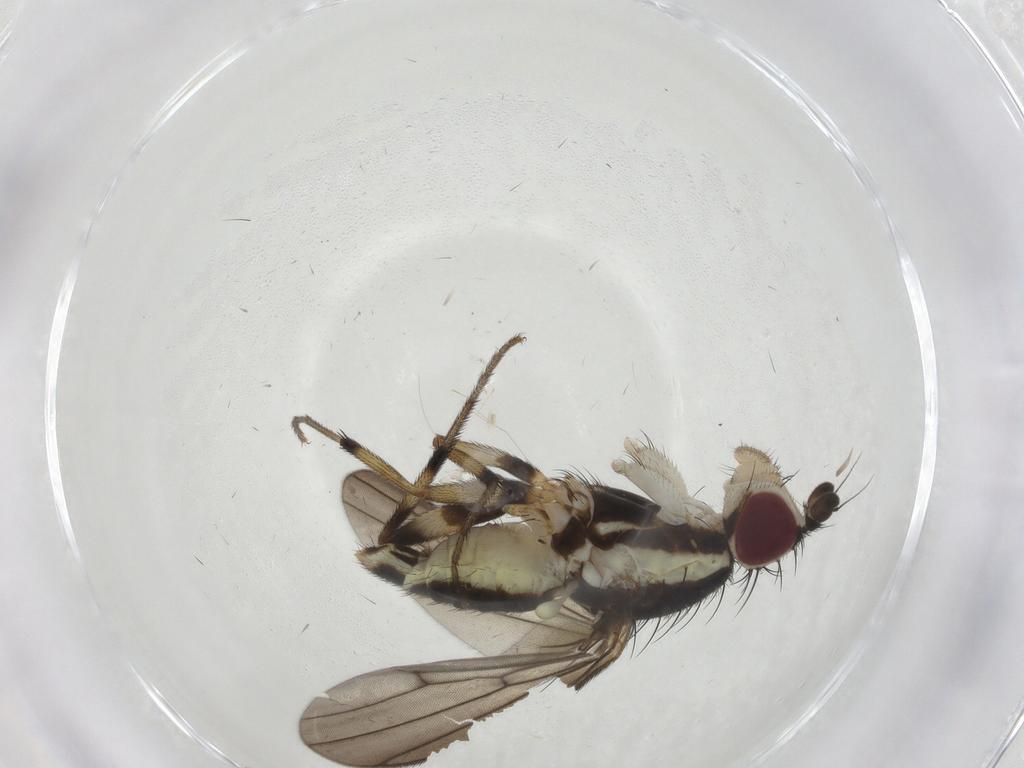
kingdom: Animalia
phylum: Arthropoda
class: Insecta
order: Diptera
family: Pseudopomyzidae
